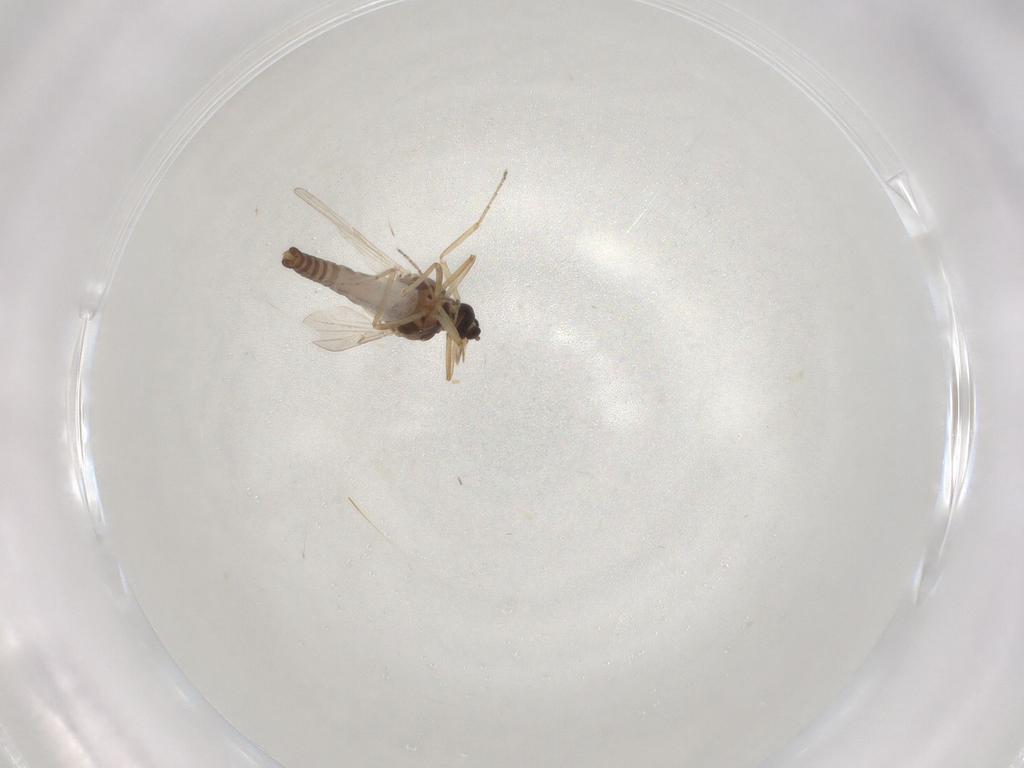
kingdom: Animalia
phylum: Arthropoda
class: Insecta
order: Diptera
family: Ceratopogonidae
